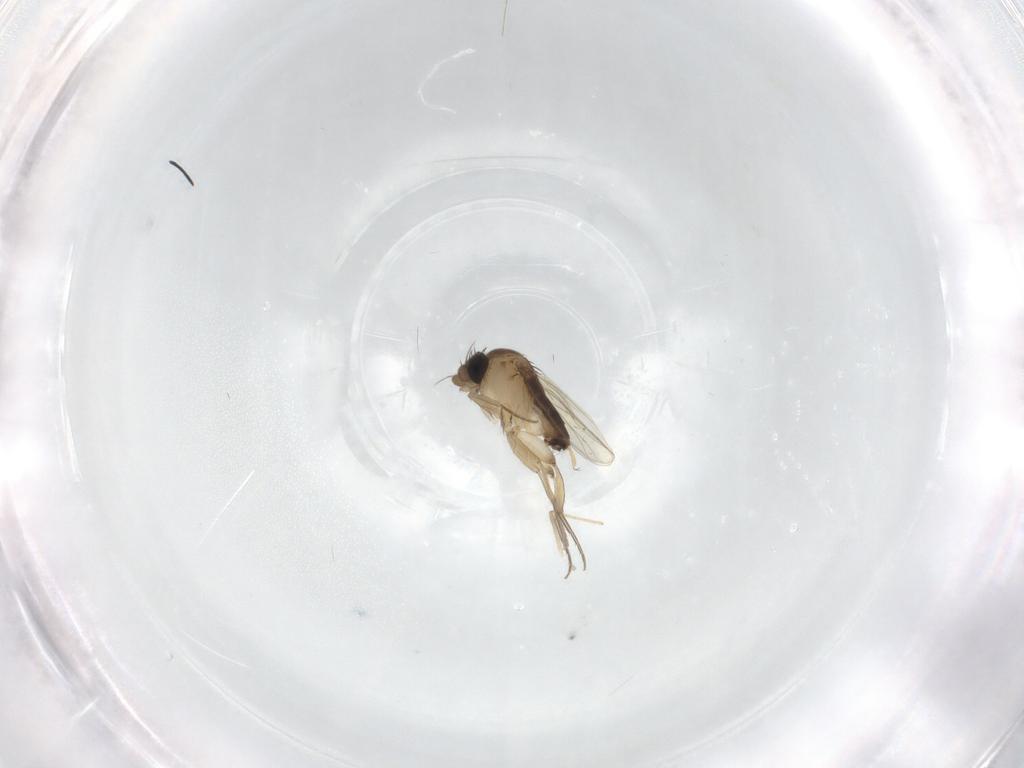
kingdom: Animalia
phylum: Arthropoda
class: Insecta
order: Diptera
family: Phoridae
